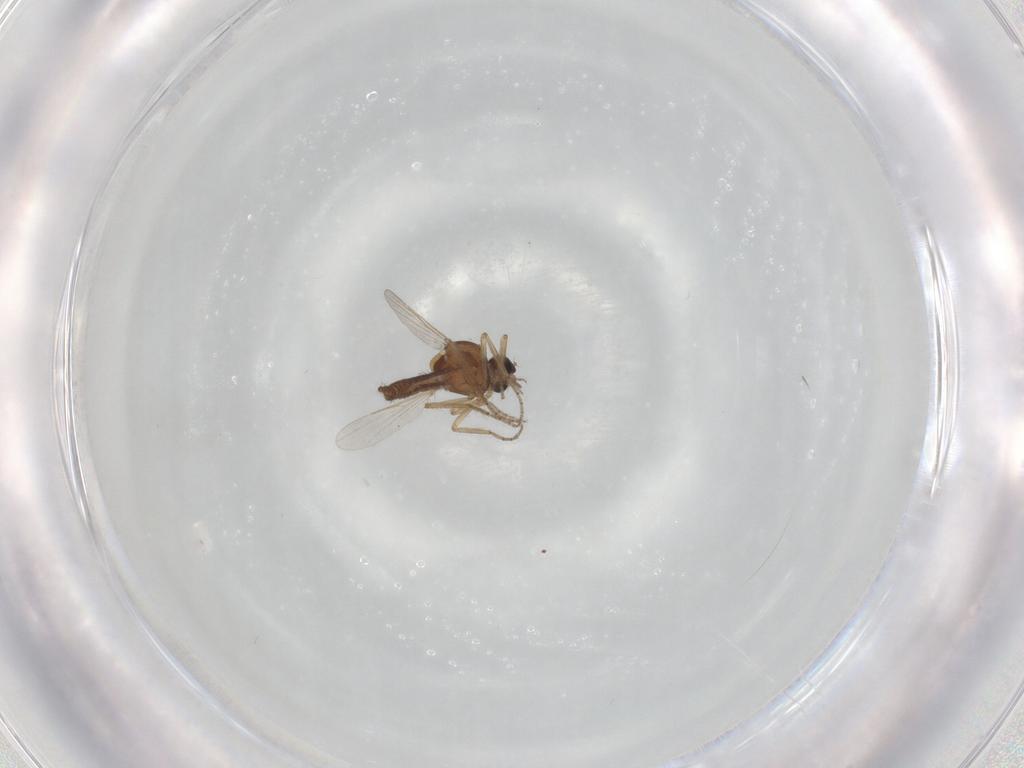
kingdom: Animalia
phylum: Arthropoda
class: Insecta
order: Diptera
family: Ceratopogonidae
